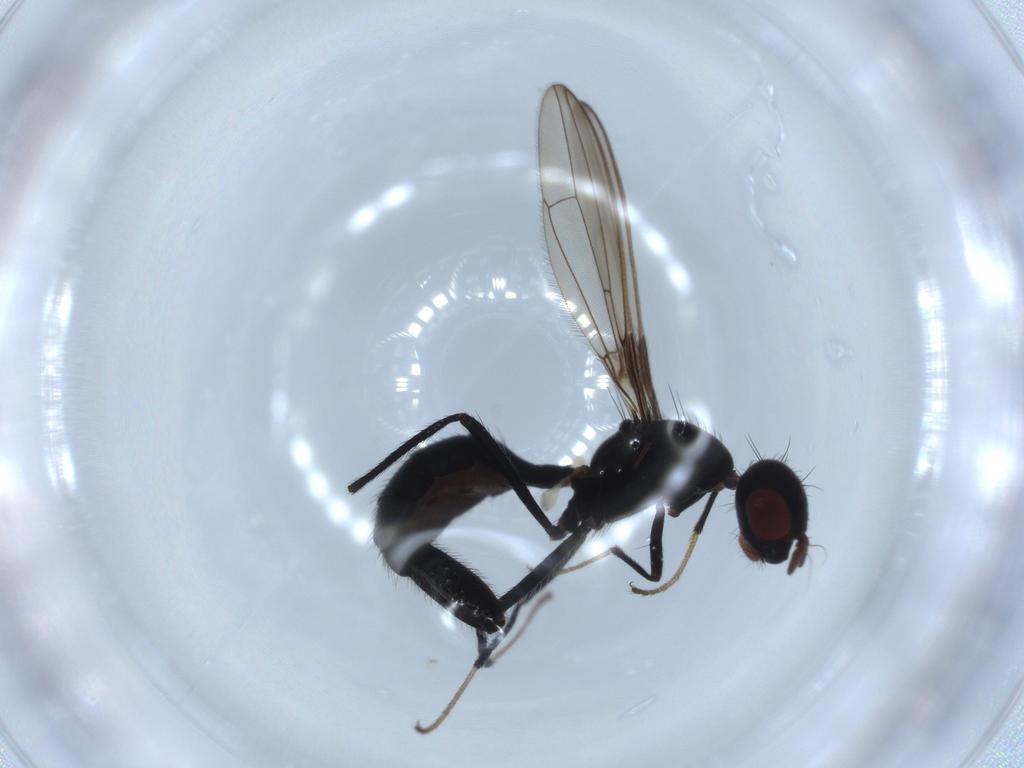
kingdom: Animalia
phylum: Arthropoda
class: Insecta
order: Diptera
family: Richardiidae
